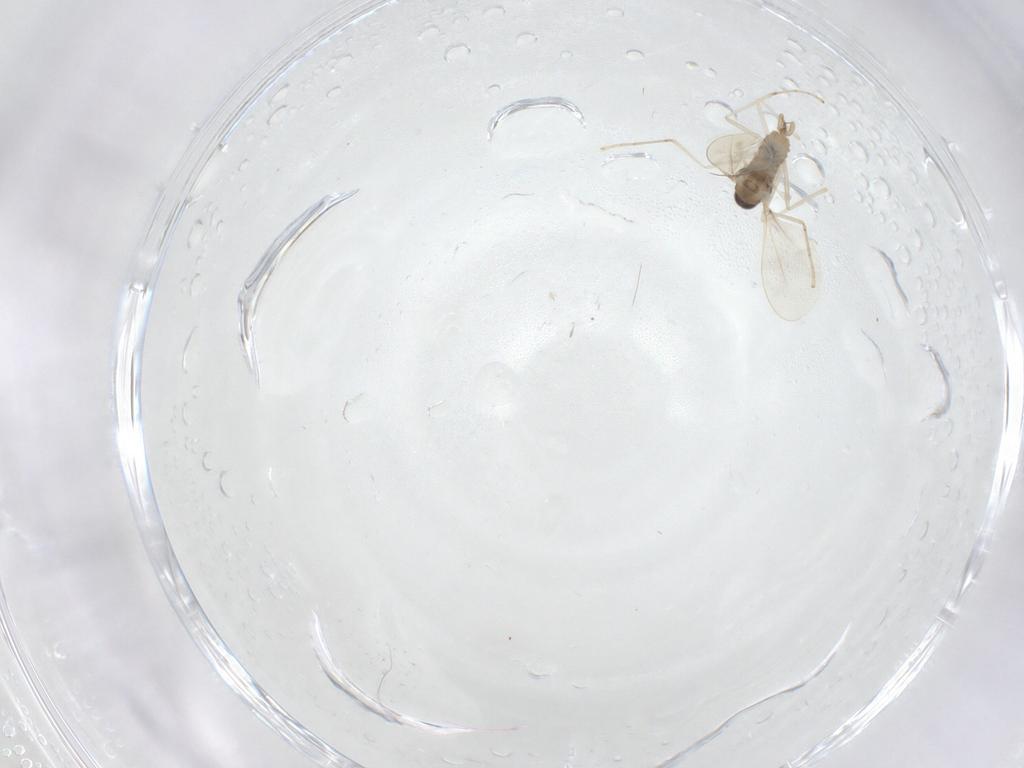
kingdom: Animalia
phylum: Arthropoda
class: Insecta
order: Diptera
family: Cecidomyiidae
